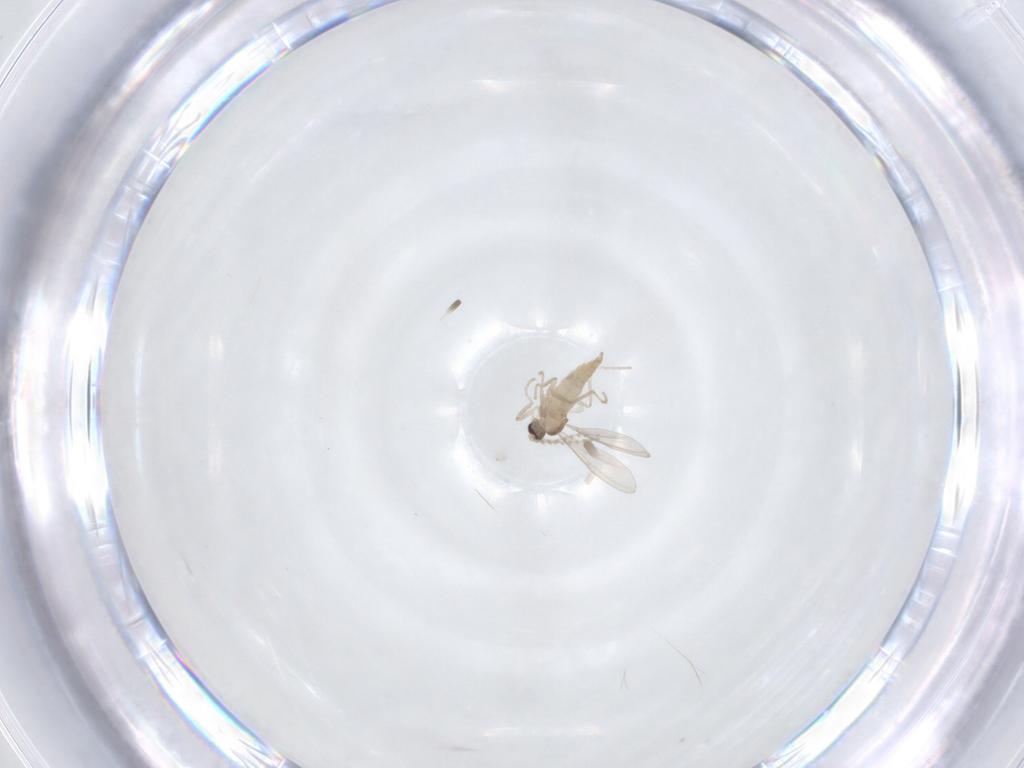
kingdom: Animalia
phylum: Arthropoda
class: Insecta
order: Diptera
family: Cecidomyiidae
